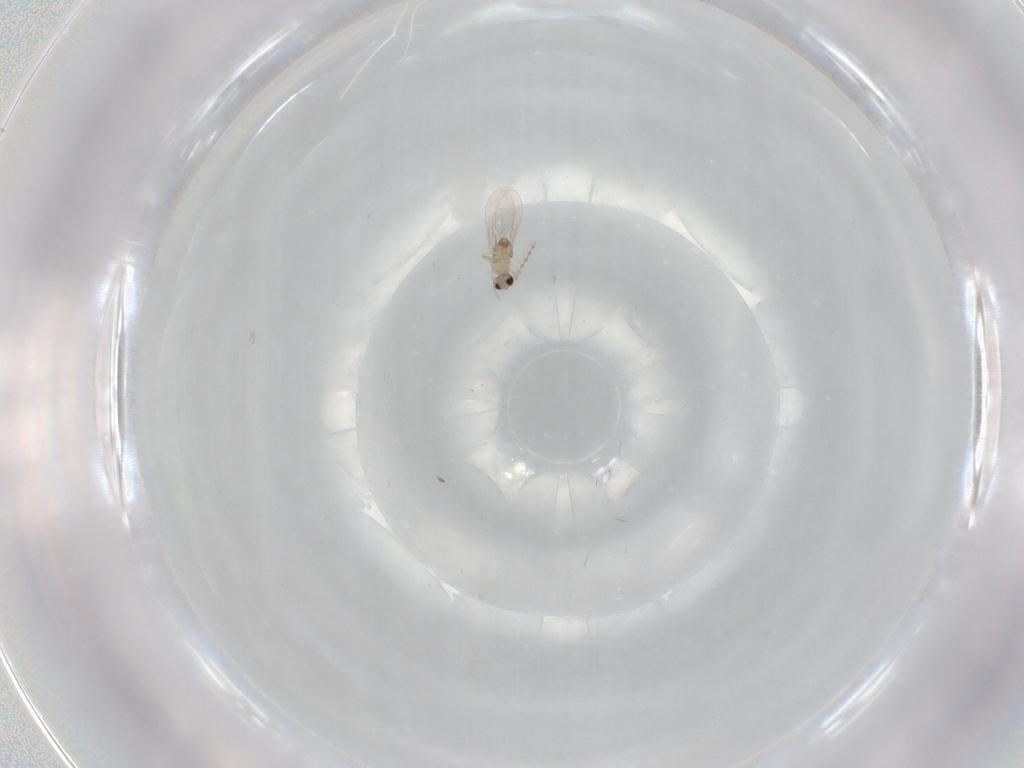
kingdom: Animalia
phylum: Arthropoda
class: Insecta
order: Diptera
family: Cecidomyiidae
